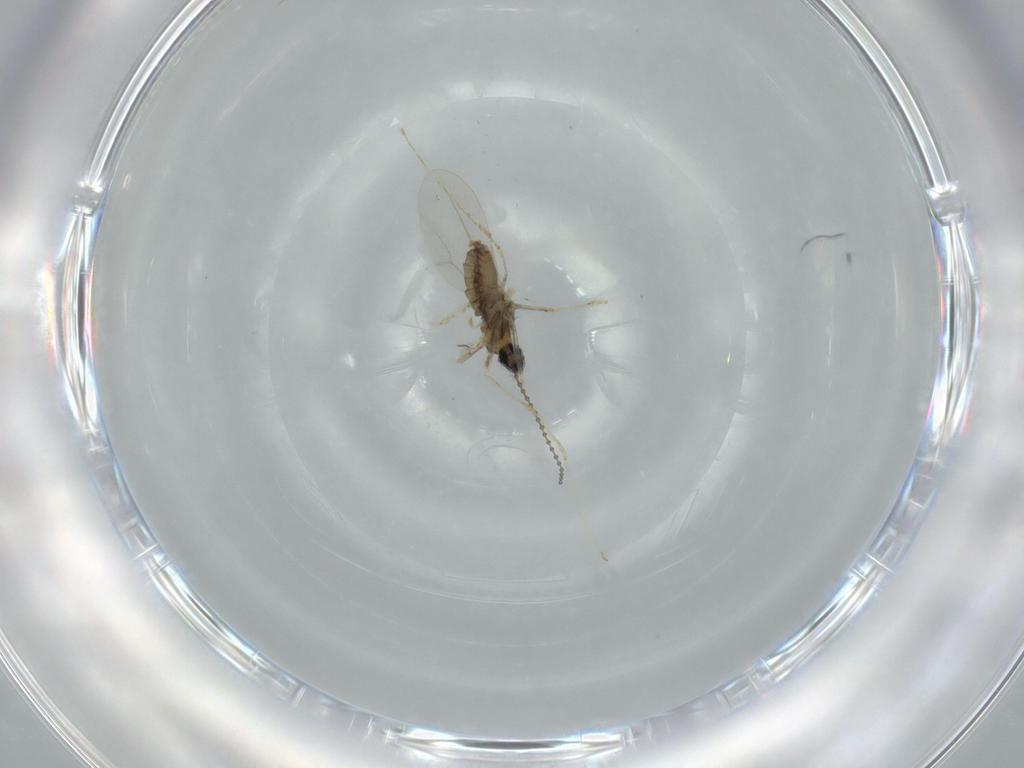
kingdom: Animalia
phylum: Arthropoda
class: Insecta
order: Diptera
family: Cecidomyiidae
